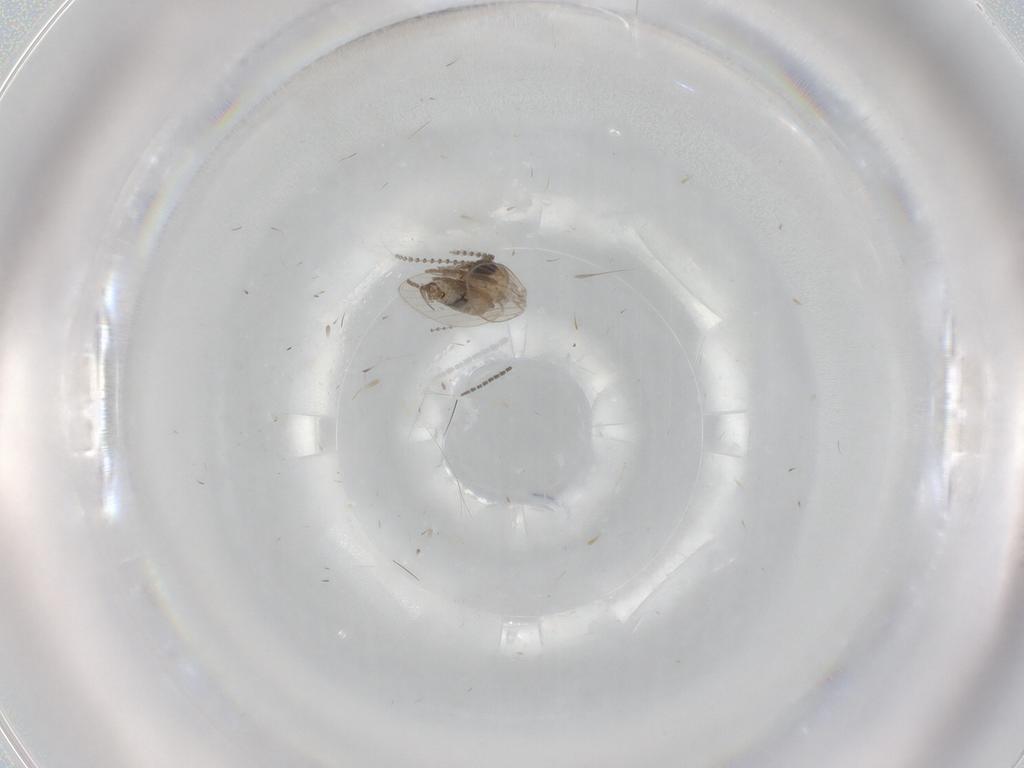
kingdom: Animalia
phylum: Arthropoda
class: Insecta
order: Diptera
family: Psychodidae
